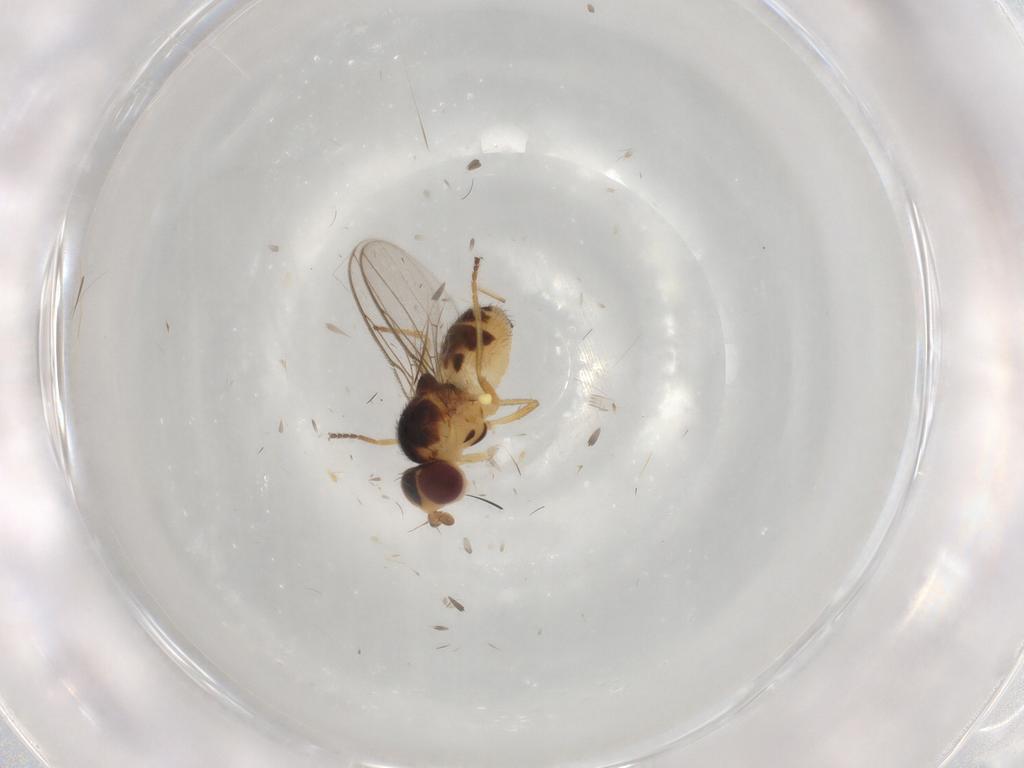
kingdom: Animalia
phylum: Arthropoda
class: Insecta
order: Diptera
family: Chloropidae
